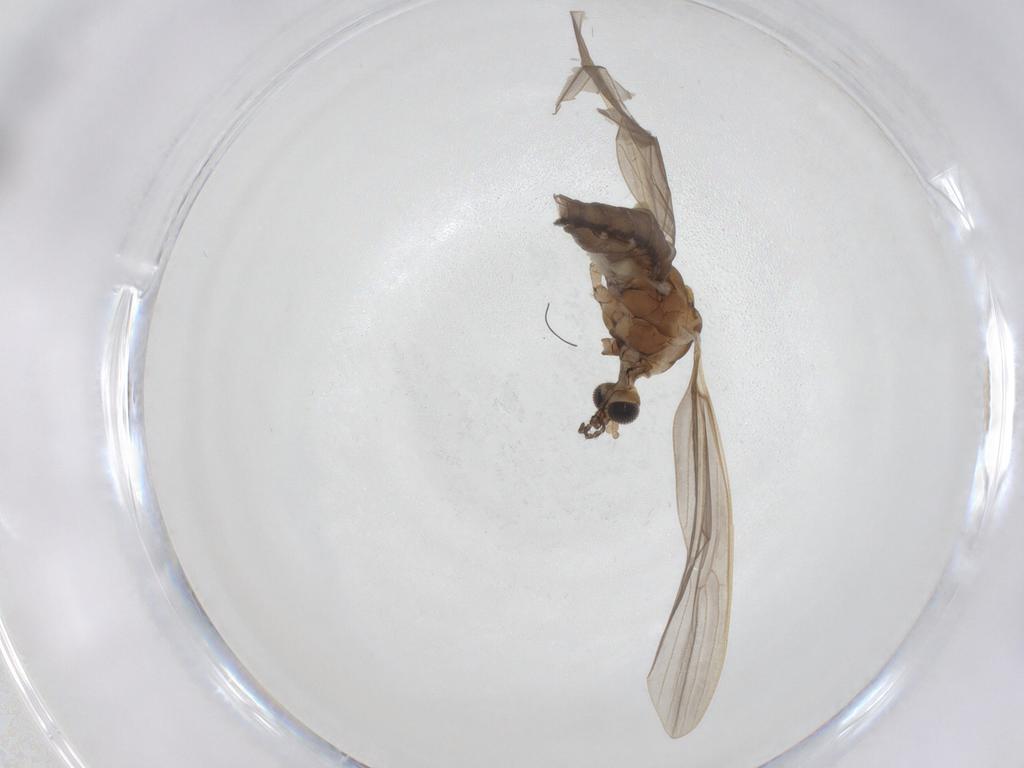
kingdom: Animalia
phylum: Arthropoda
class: Insecta
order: Diptera
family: Limoniidae
